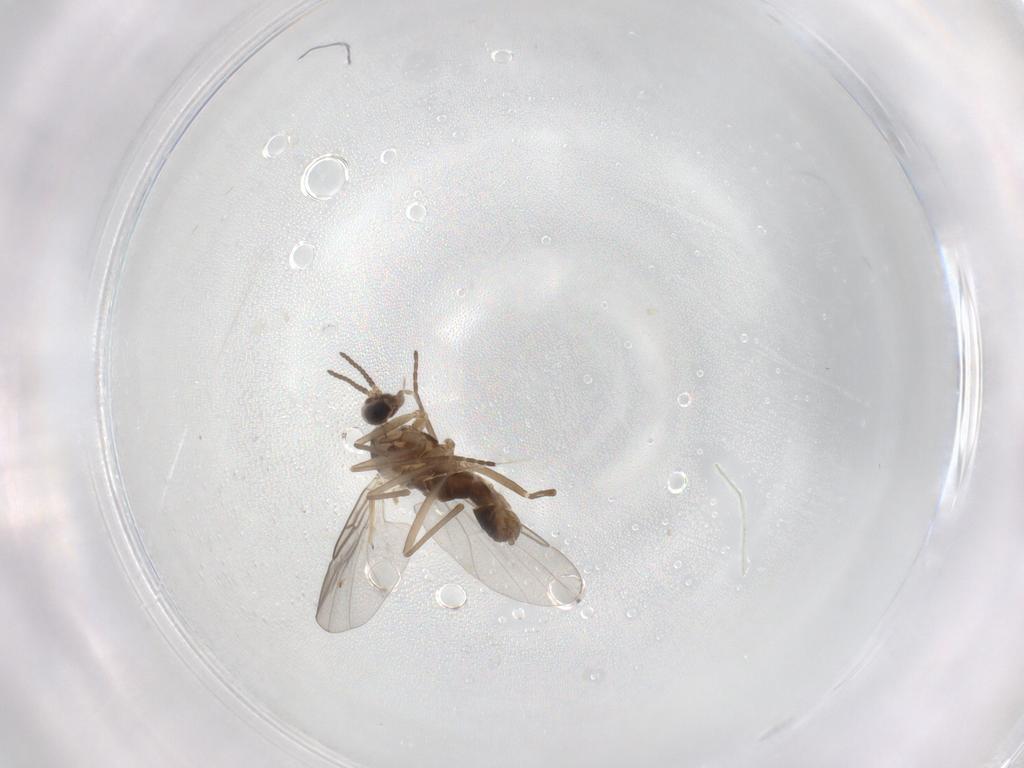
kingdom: Animalia
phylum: Arthropoda
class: Insecta
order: Diptera
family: Cecidomyiidae
